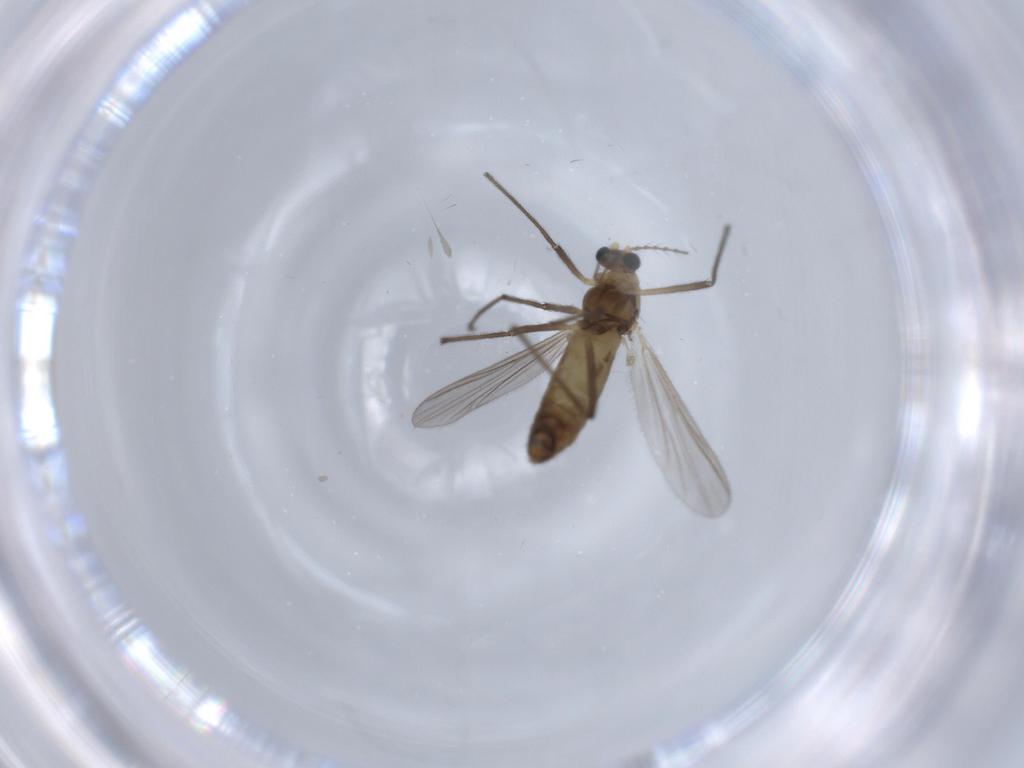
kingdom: Animalia
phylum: Arthropoda
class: Insecta
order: Diptera
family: Chironomidae
